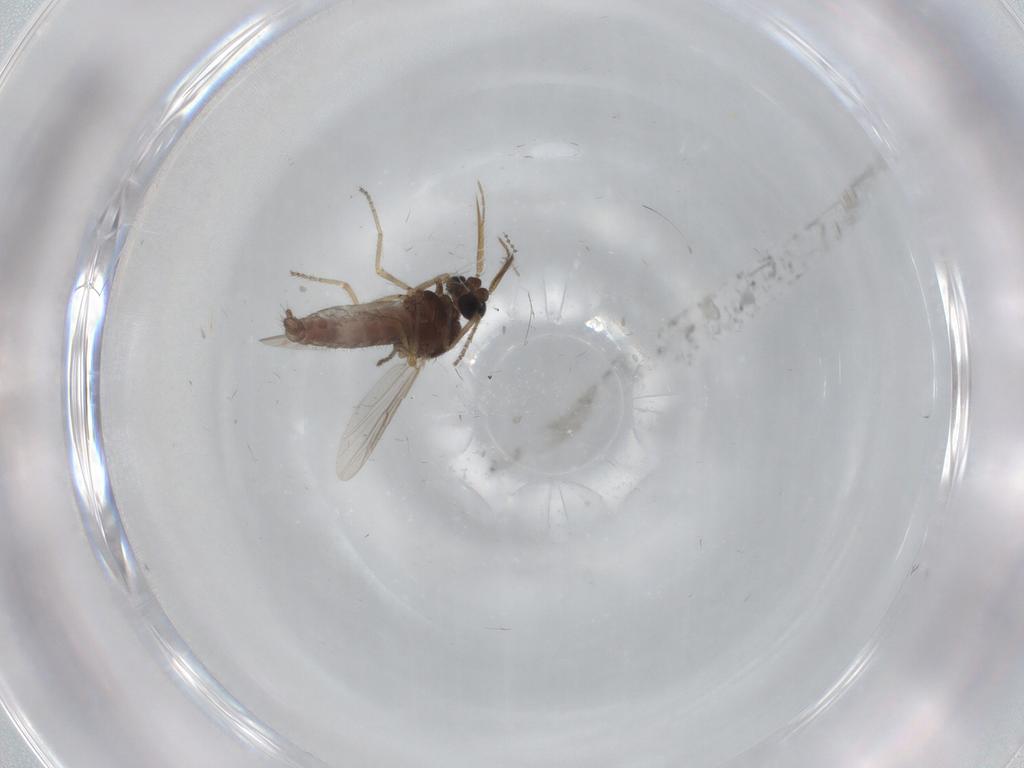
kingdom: Animalia
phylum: Arthropoda
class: Insecta
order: Diptera
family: Ceratopogonidae
